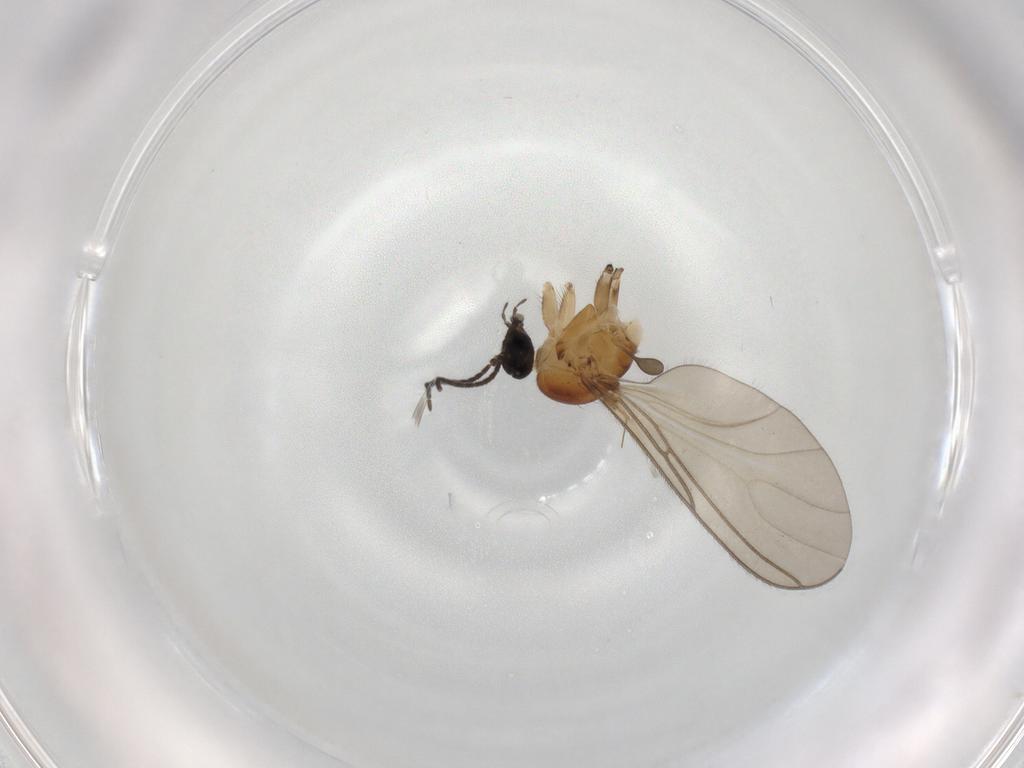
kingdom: Animalia
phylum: Arthropoda
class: Insecta
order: Diptera
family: Sciaridae
